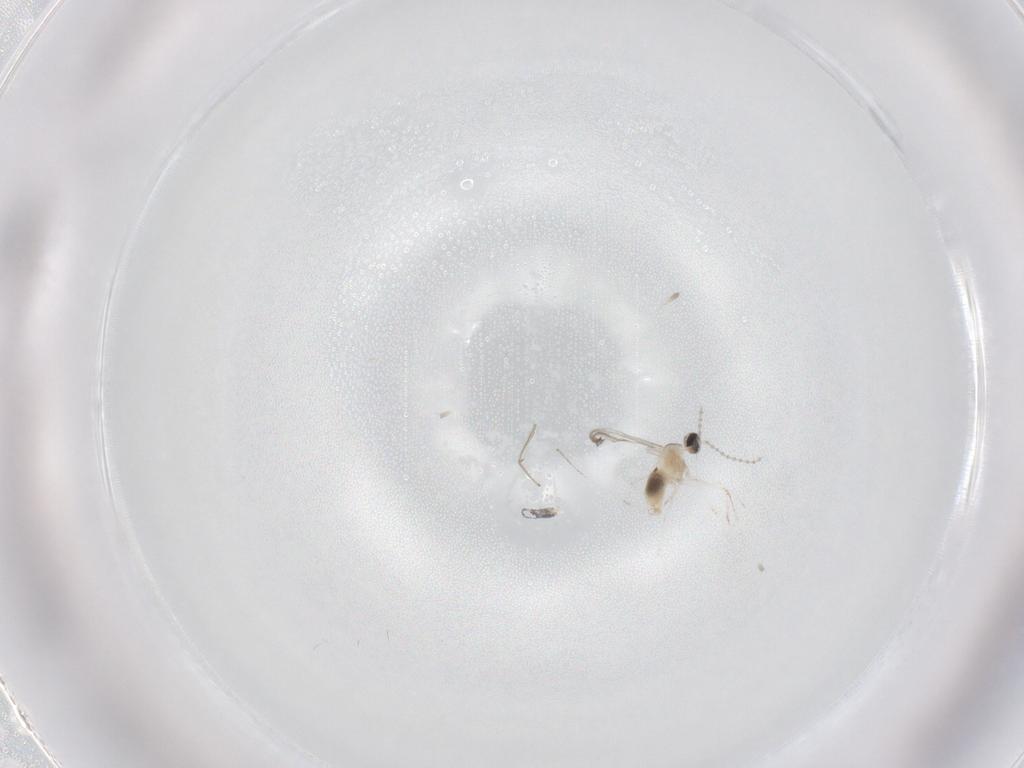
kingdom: Animalia
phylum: Arthropoda
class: Insecta
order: Diptera
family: Cecidomyiidae
